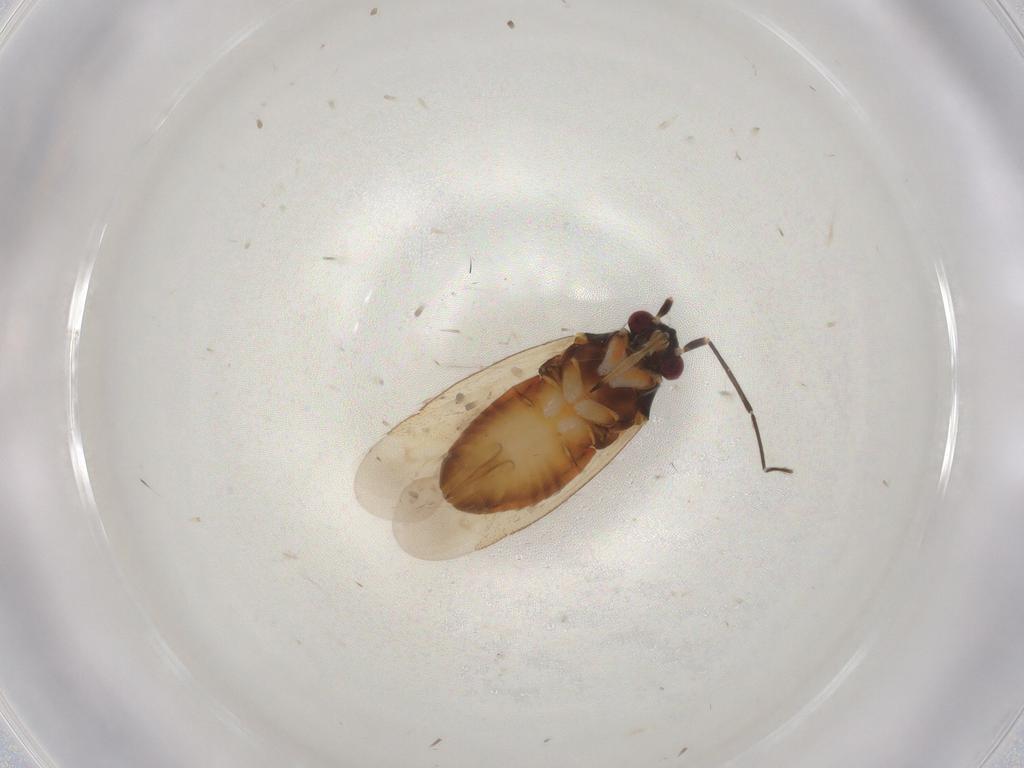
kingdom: Animalia
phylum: Arthropoda
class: Insecta
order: Hemiptera
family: Miridae
